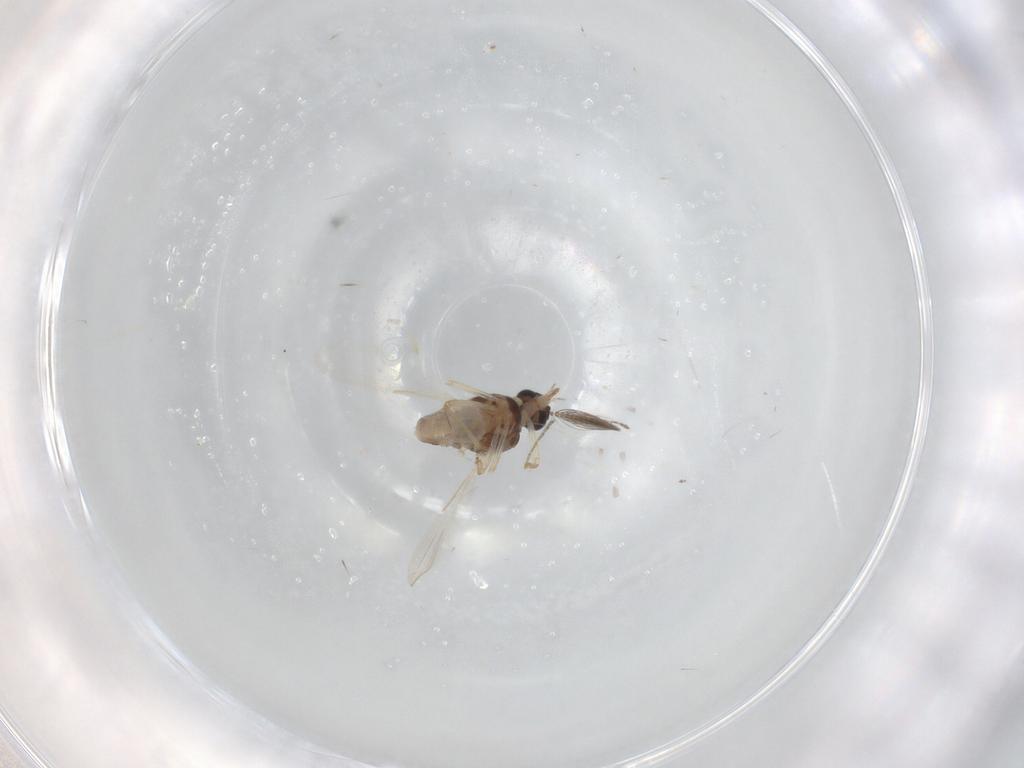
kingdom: Animalia
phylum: Arthropoda
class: Insecta
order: Diptera
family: Ceratopogonidae
